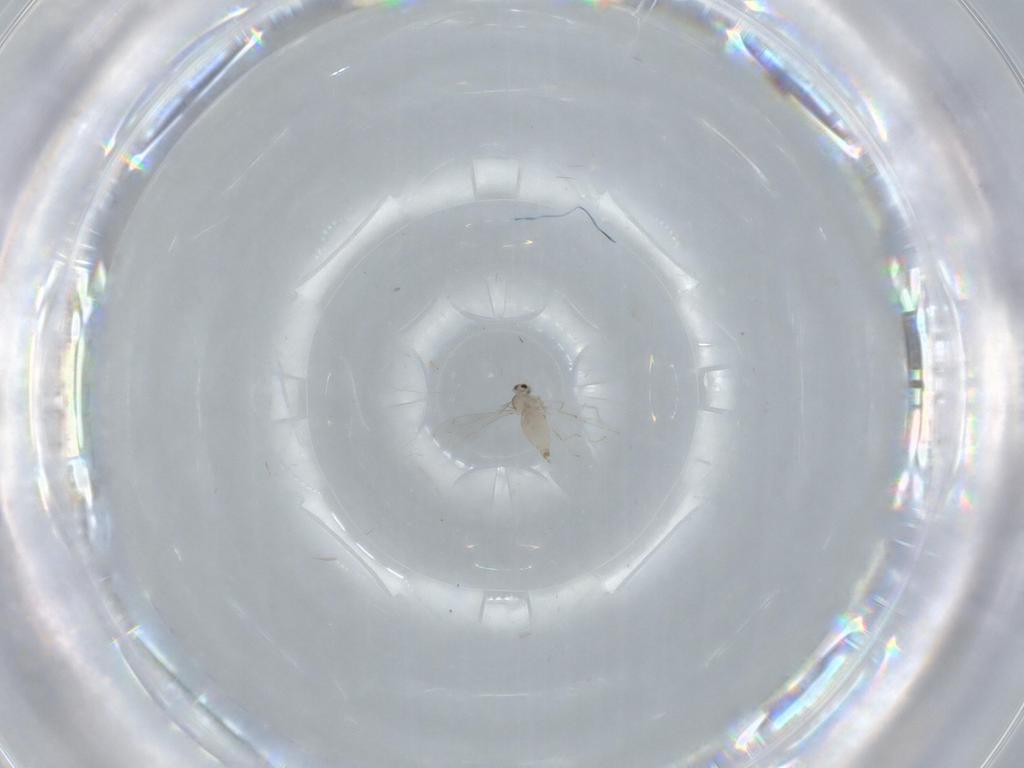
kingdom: Animalia
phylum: Arthropoda
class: Insecta
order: Diptera
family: Cecidomyiidae
